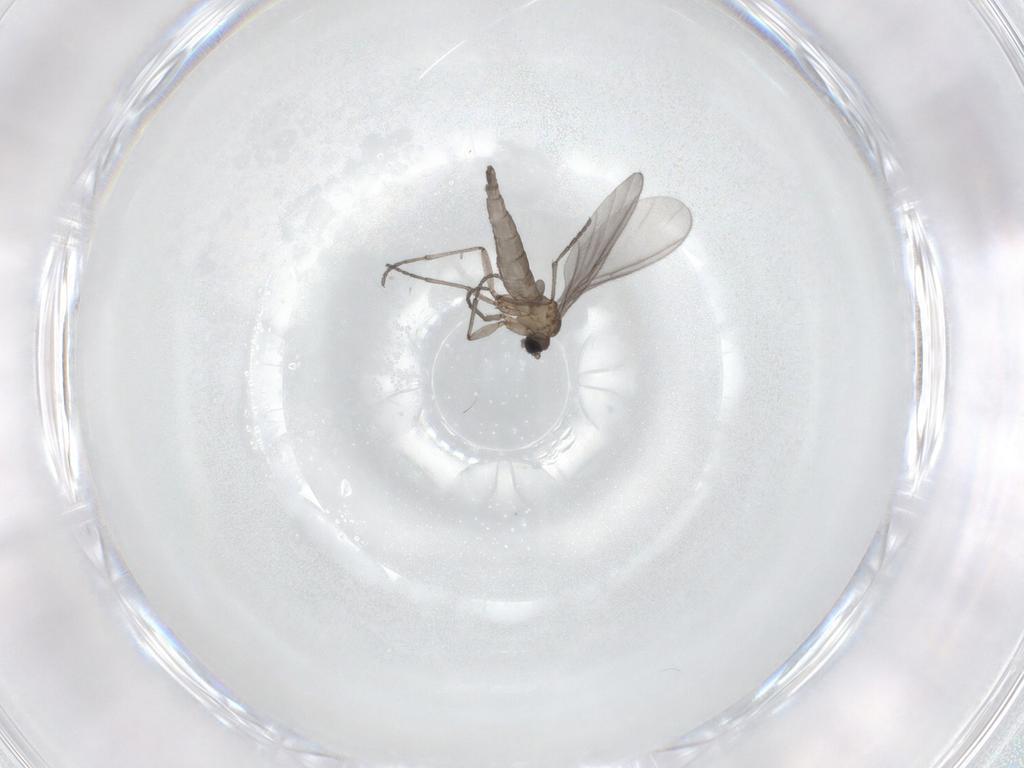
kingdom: Animalia
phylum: Arthropoda
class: Insecta
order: Diptera
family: Sciaridae
